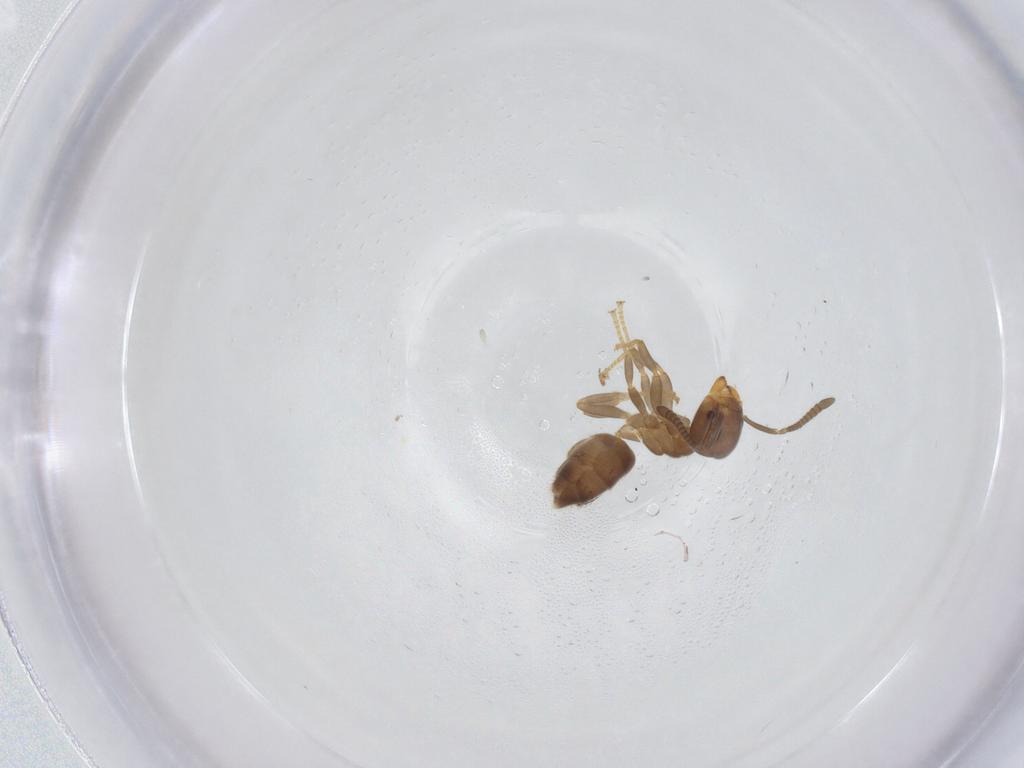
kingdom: Animalia
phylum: Arthropoda
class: Insecta
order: Hymenoptera
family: Formicidae
